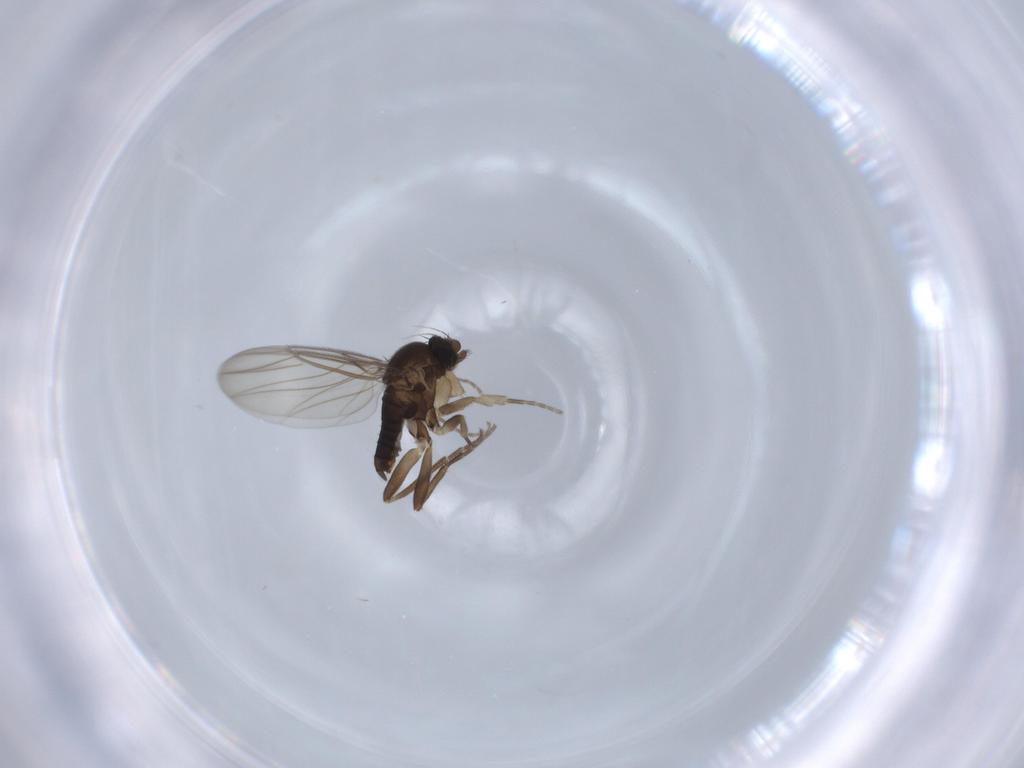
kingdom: Animalia
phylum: Arthropoda
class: Insecta
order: Diptera
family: Phoridae
